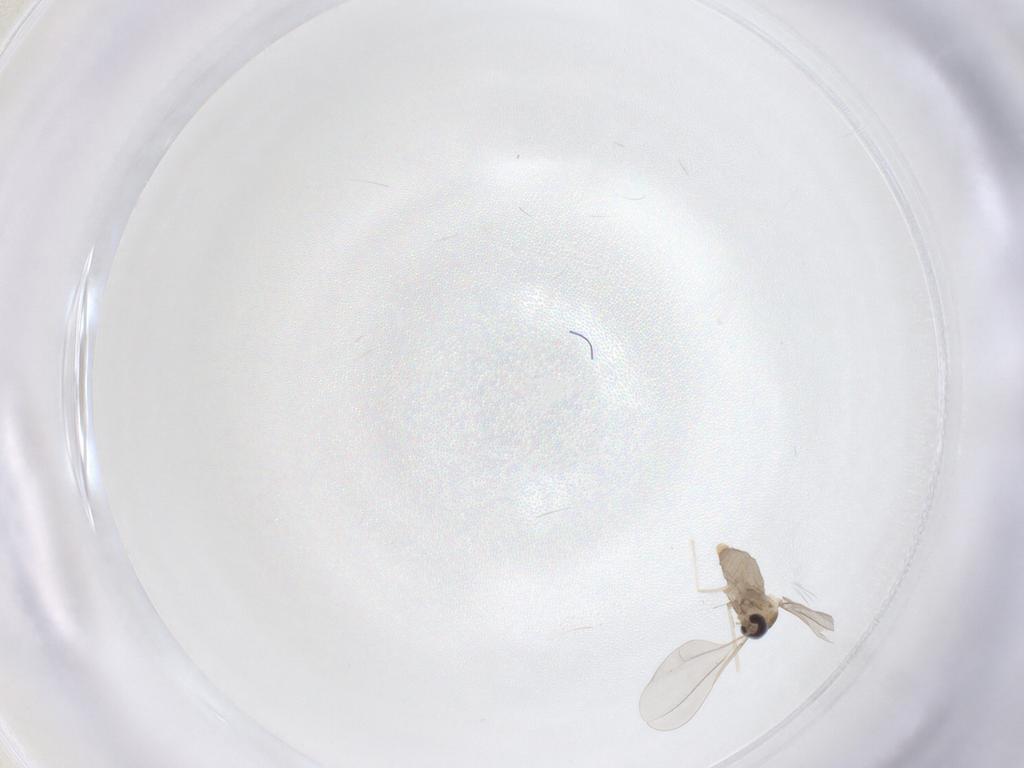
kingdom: Animalia
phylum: Arthropoda
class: Insecta
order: Diptera
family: Cecidomyiidae
